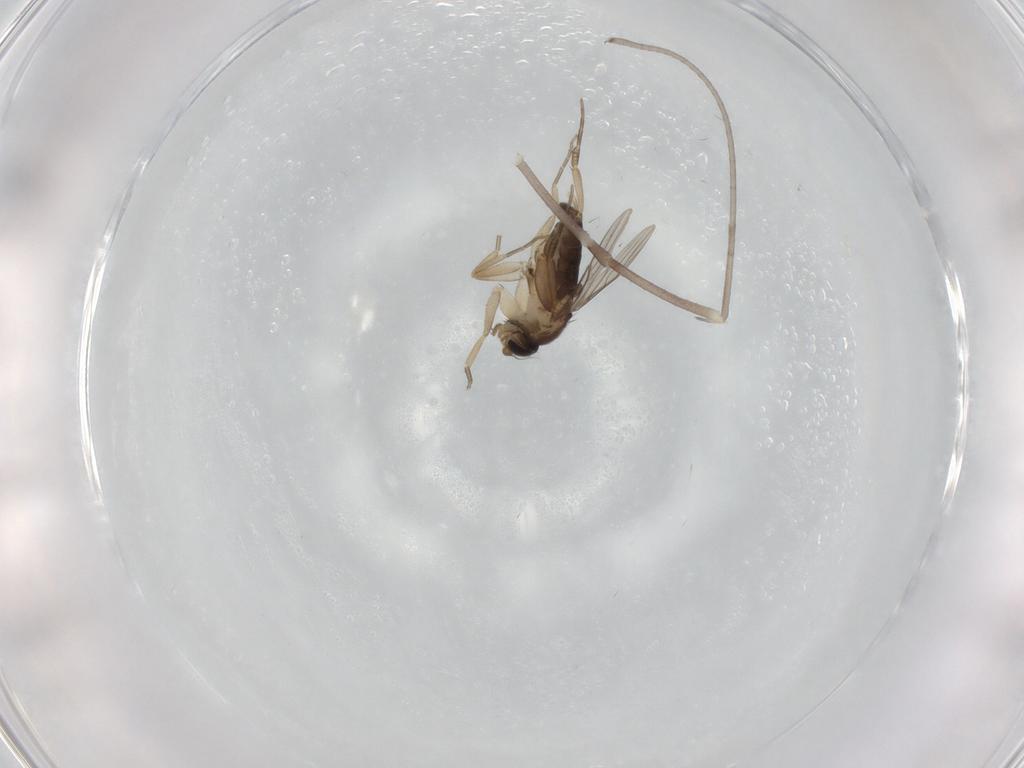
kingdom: Animalia
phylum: Arthropoda
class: Insecta
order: Diptera
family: Phoridae
